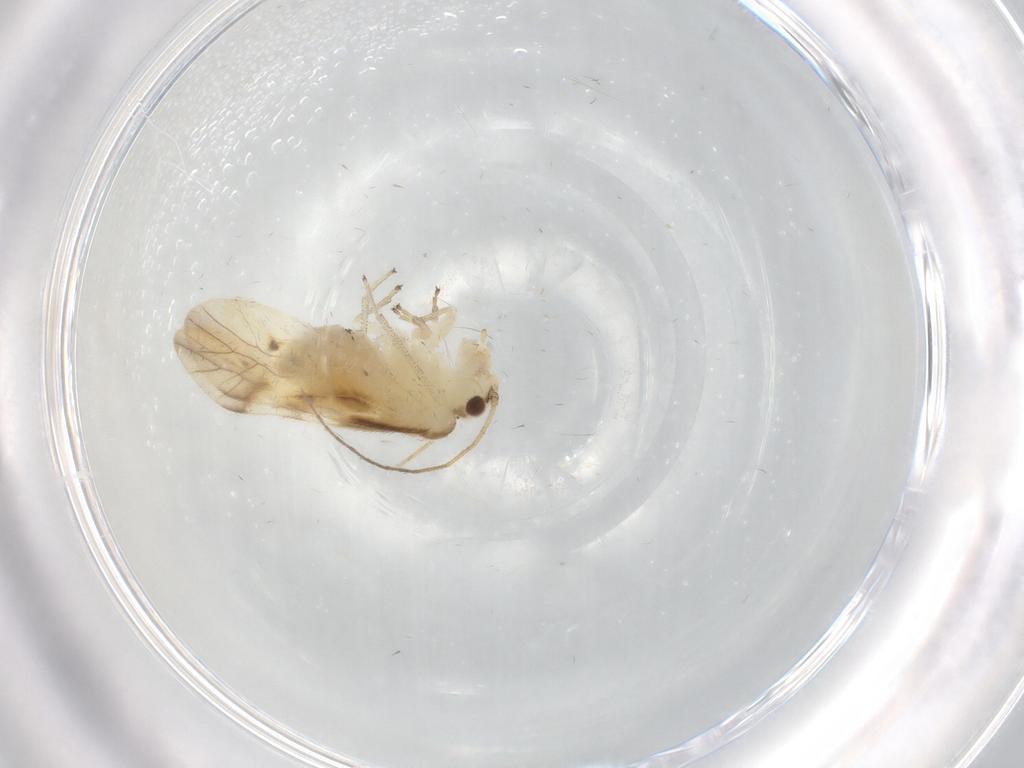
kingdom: Animalia
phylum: Arthropoda
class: Insecta
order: Psocodea
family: Caeciliusidae
